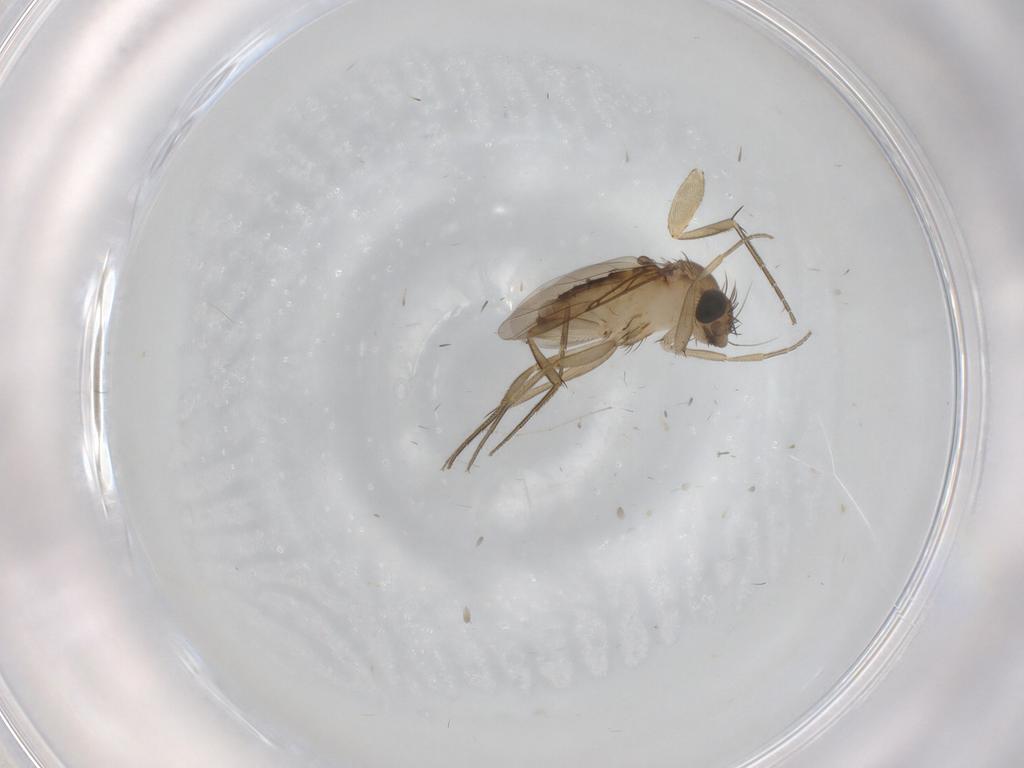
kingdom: Animalia
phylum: Arthropoda
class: Insecta
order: Diptera
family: Phoridae
